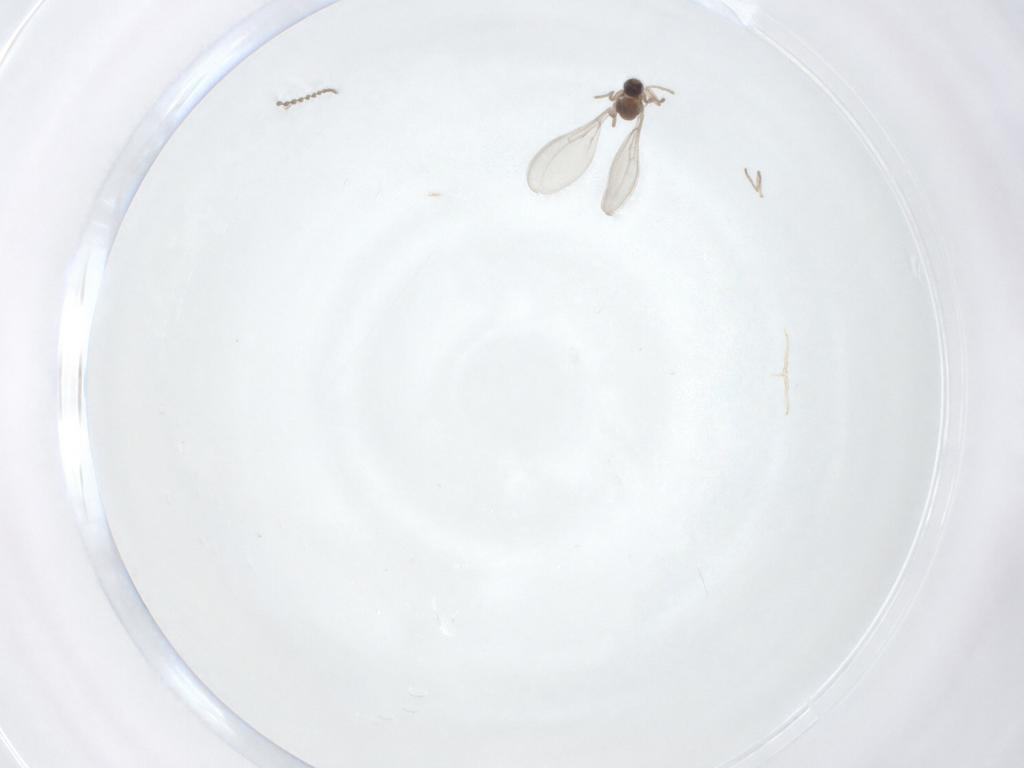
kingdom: Animalia
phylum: Arthropoda
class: Insecta
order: Diptera
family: Cecidomyiidae
